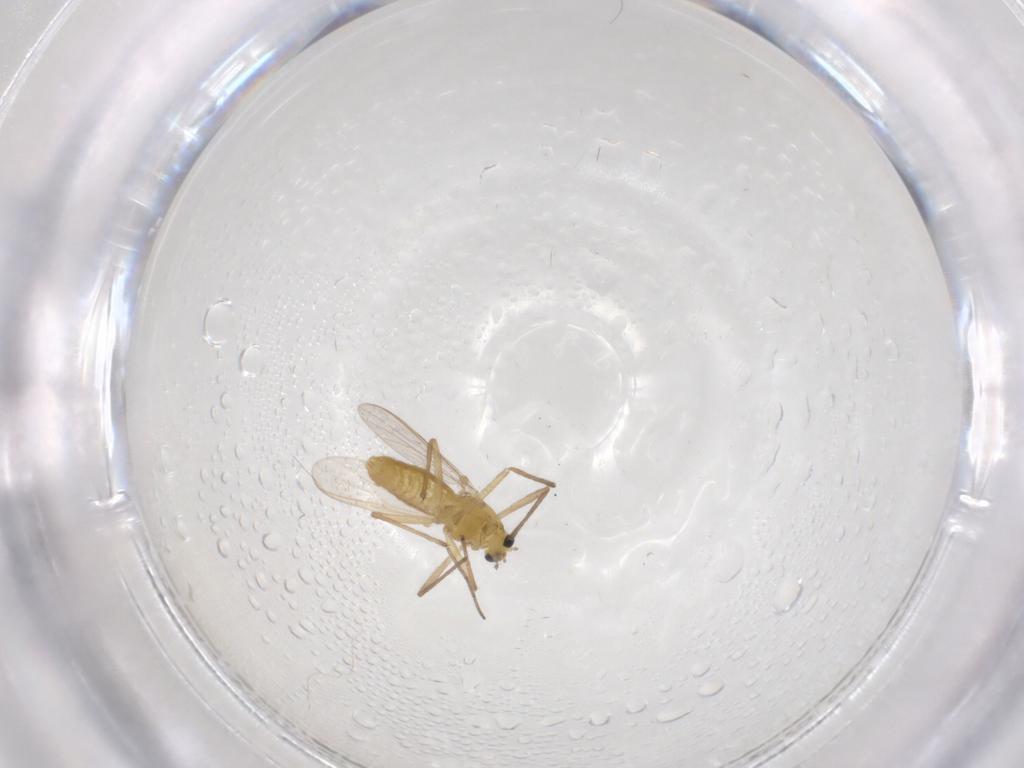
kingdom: Animalia
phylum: Arthropoda
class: Insecta
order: Diptera
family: Chironomidae
